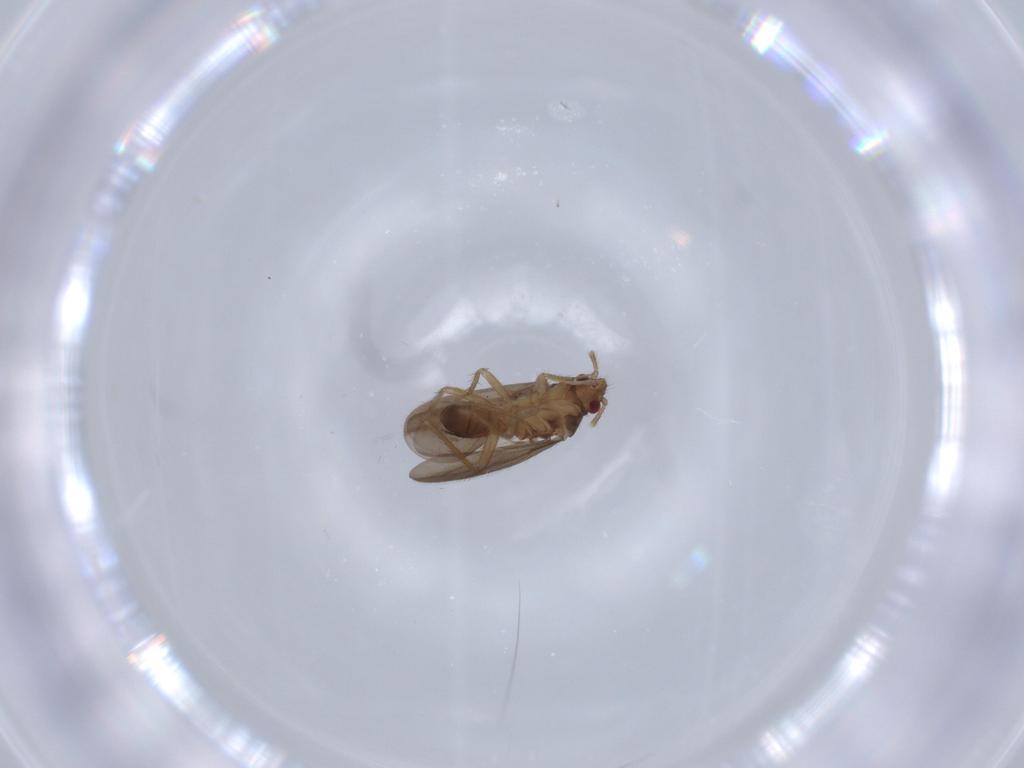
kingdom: Animalia
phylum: Arthropoda
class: Insecta
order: Hemiptera
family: Ceratocombidae
